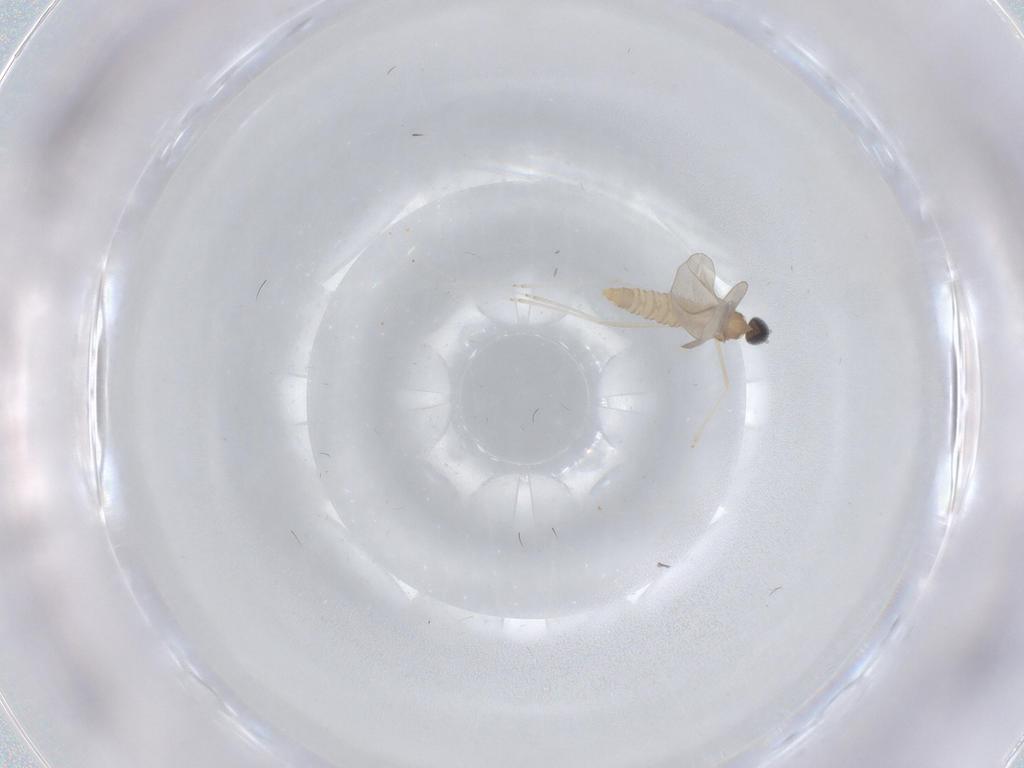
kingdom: Animalia
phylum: Arthropoda
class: Insecta
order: Diptera
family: Cecidomyiidae
